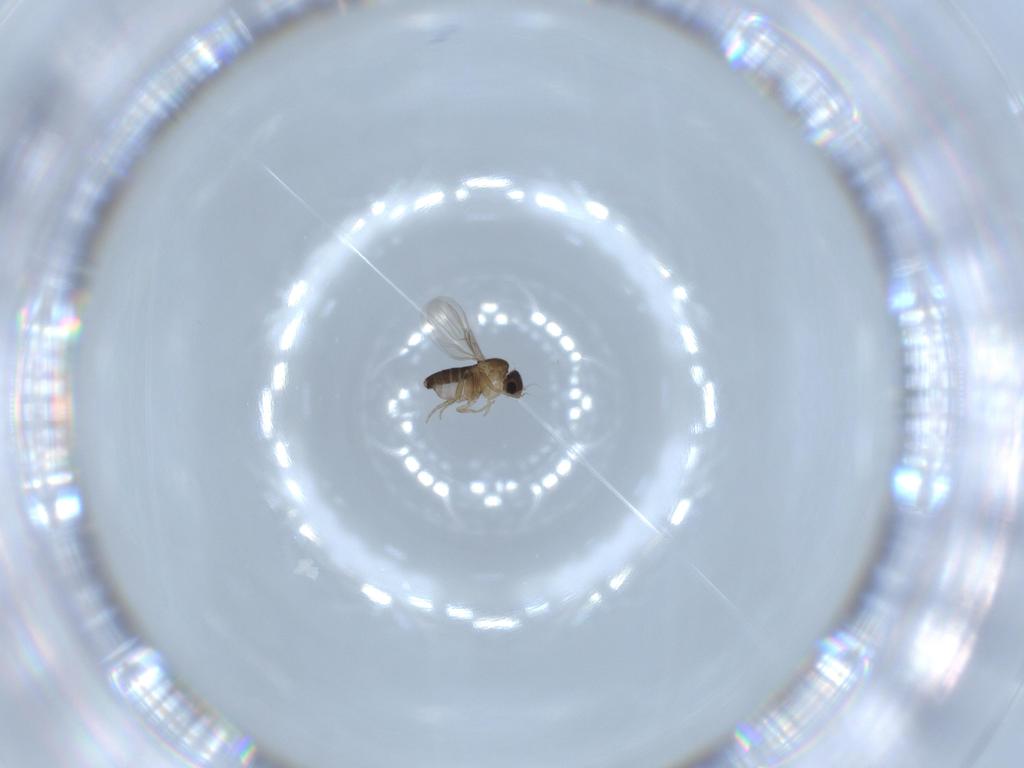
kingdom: Animalia
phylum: Arthropoda
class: Insecta
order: Diptera
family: Phoridae
